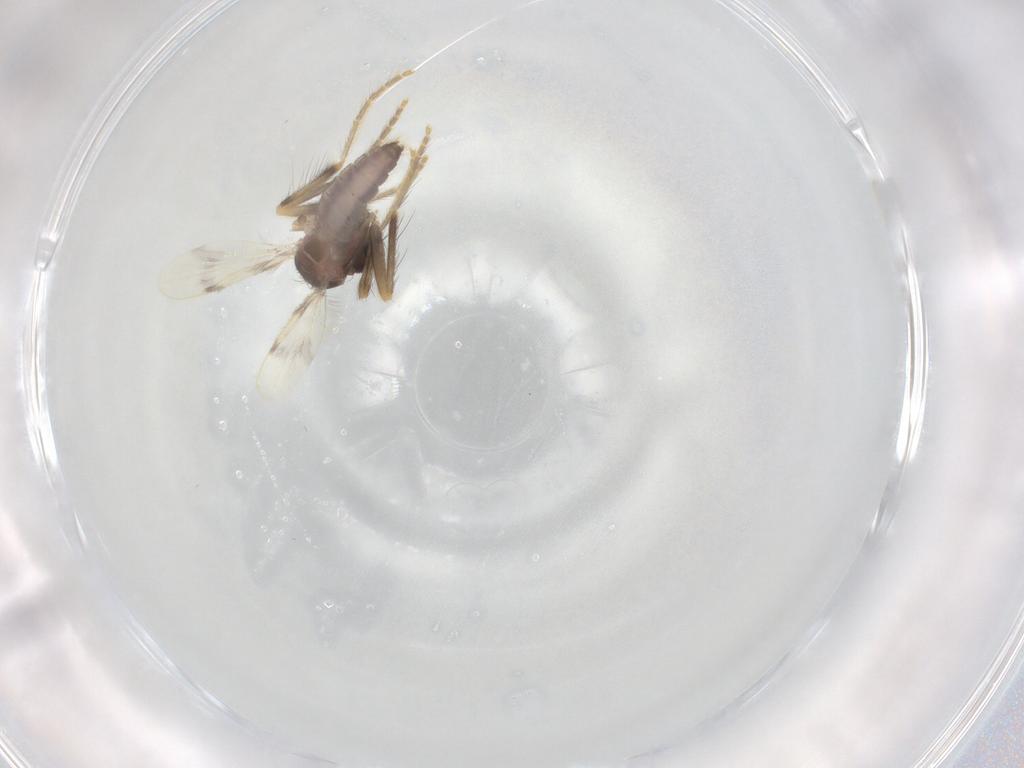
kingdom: Animalia
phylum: Arthropoda
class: Insecta
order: Diptera
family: Corethrellidae
